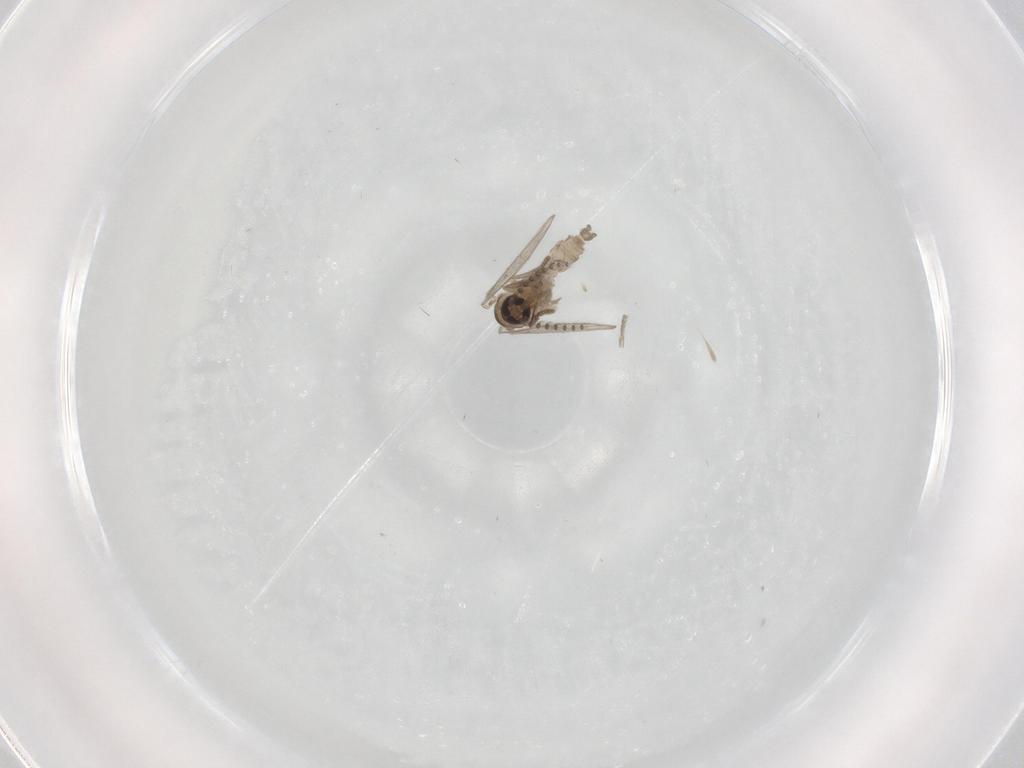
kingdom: Animalia
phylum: Arthropoda
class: Insecta
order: Diptera
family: Psychodidae
